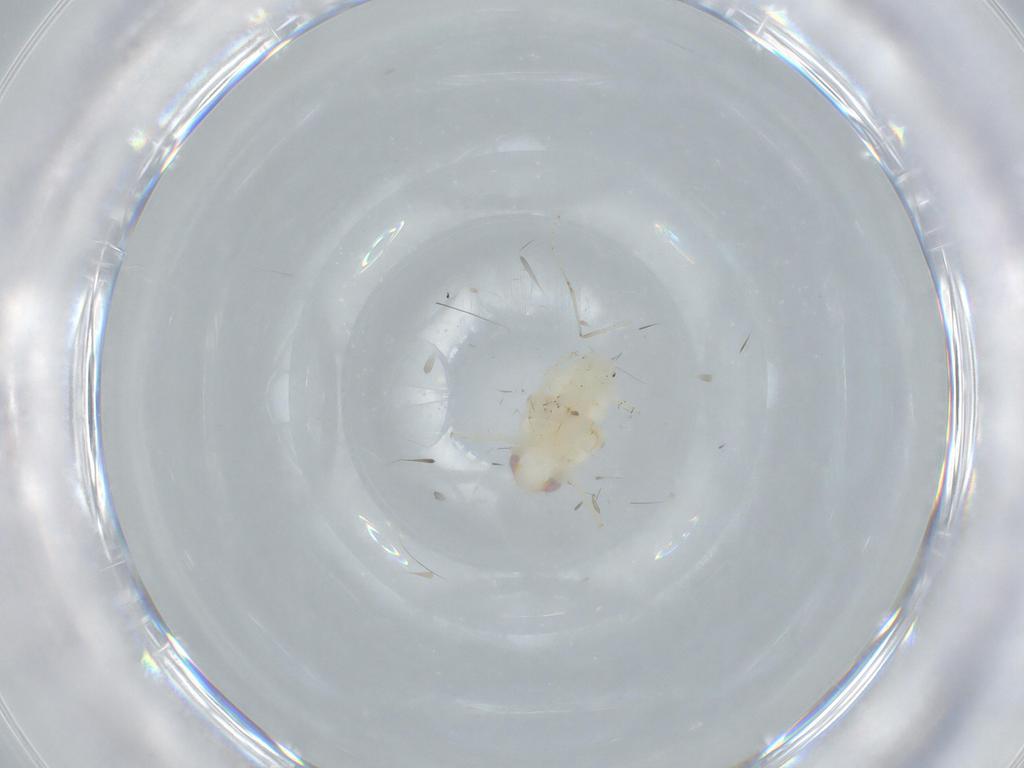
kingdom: Animalia
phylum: Arthropoda
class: Insecta
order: Hemiptera
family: Nogodinidae
